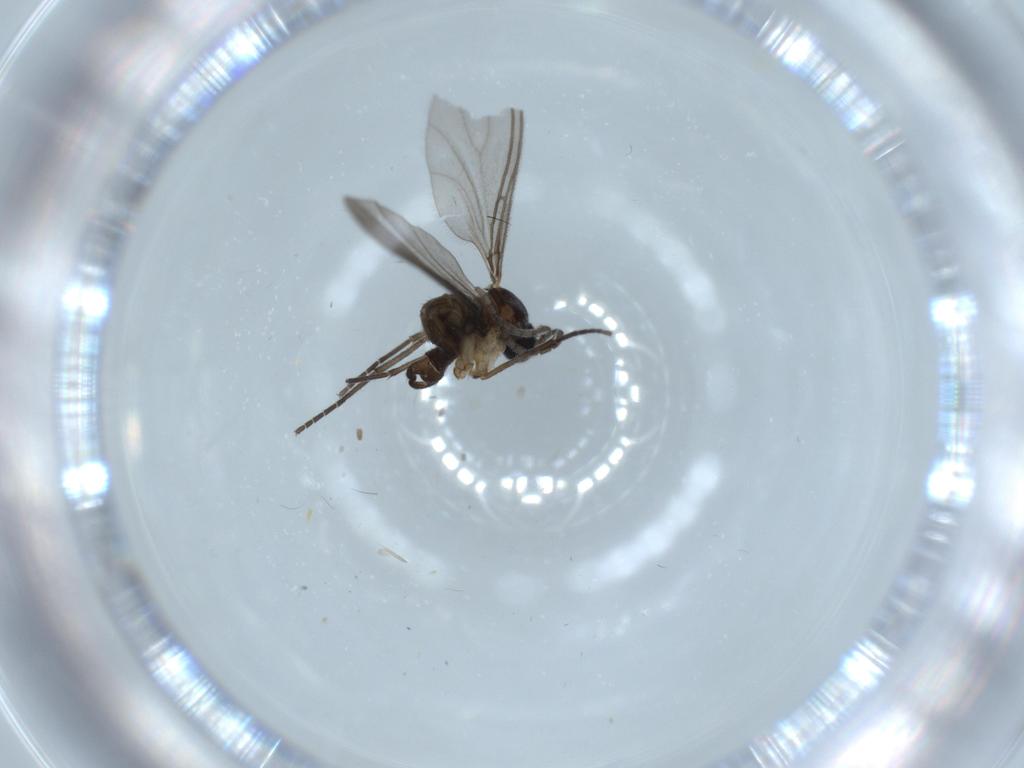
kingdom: Animalia
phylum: Arthropoda
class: Insecta
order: Diptera
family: Sciaridae
